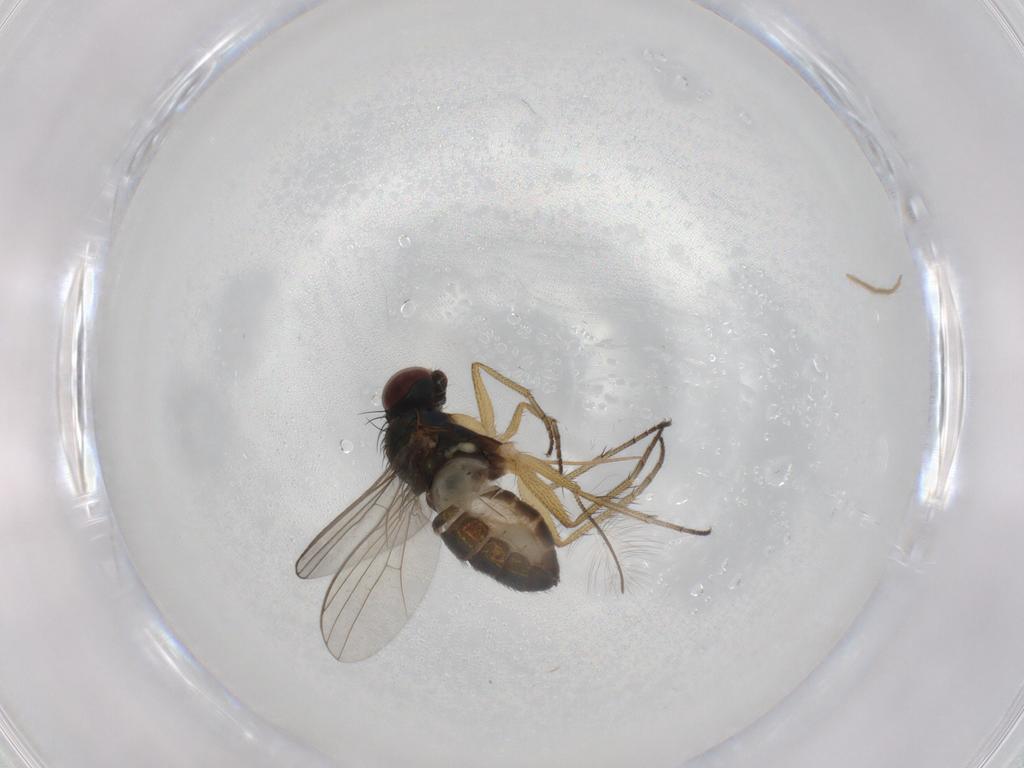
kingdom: Animalia
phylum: Arthropoda
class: Insecta
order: Diptera
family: Chironomidae
